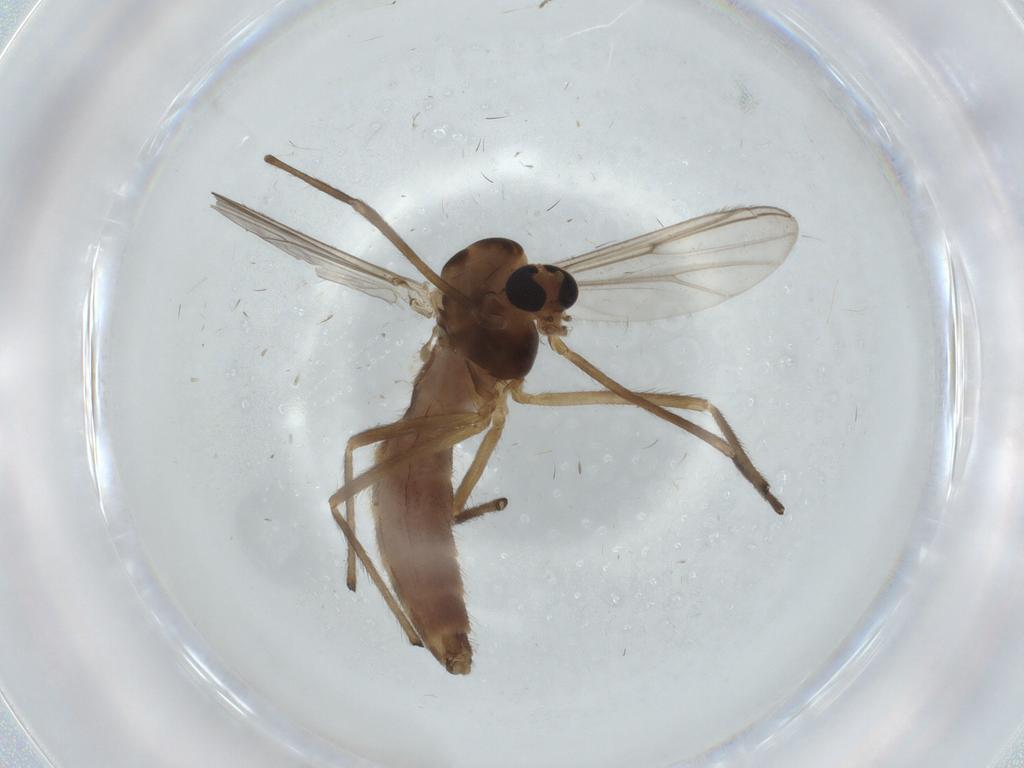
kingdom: Animalia
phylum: Arthropoda
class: Insecta
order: Diptera
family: Chironomidae
